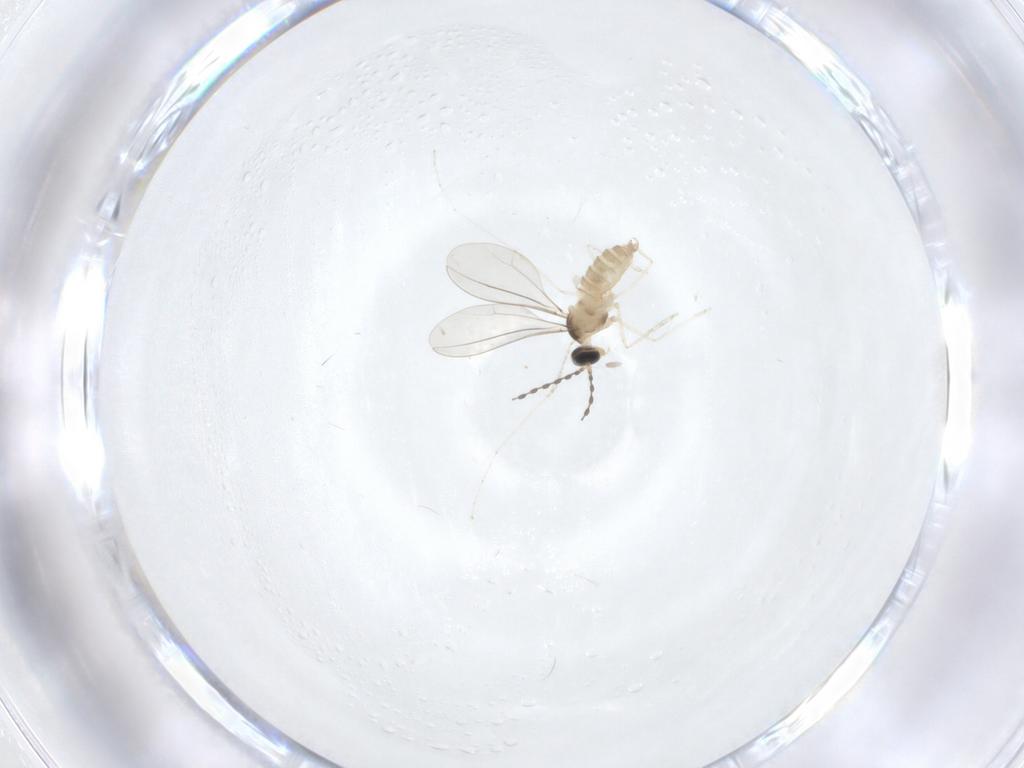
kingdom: Animalia
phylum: Arthropoda
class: Insecta
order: Diptera
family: Cecidomyiidae
